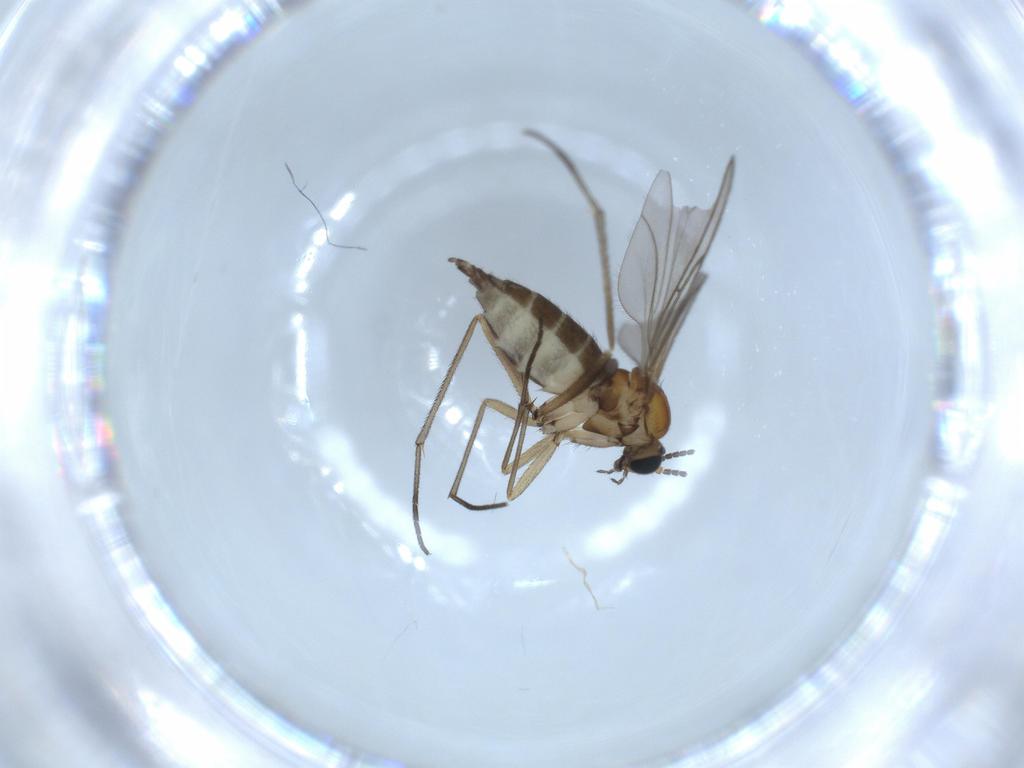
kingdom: Animalia
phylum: Arthropoda
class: Insecta
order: Diptera
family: Sciaridae
